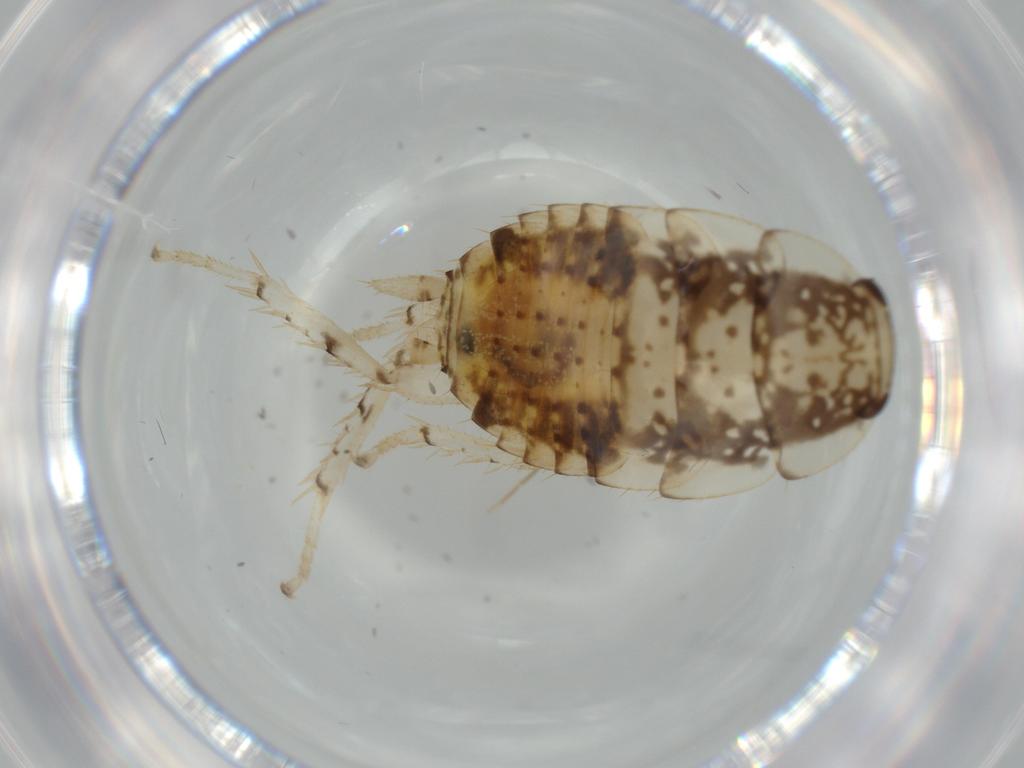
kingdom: Animalia
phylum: Arthropoda
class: Insecta
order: Blattodea
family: Ectobiidae
